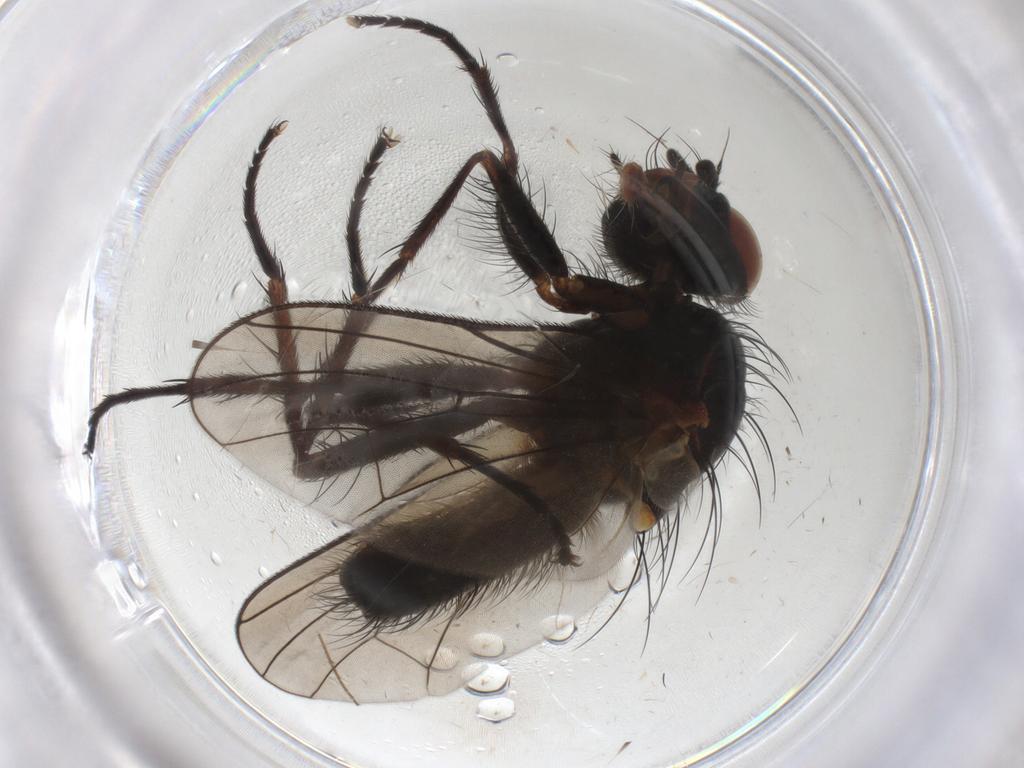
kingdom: Animalia
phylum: Arthropoda
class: Insecta
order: Diptera
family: Anthomyiidae
